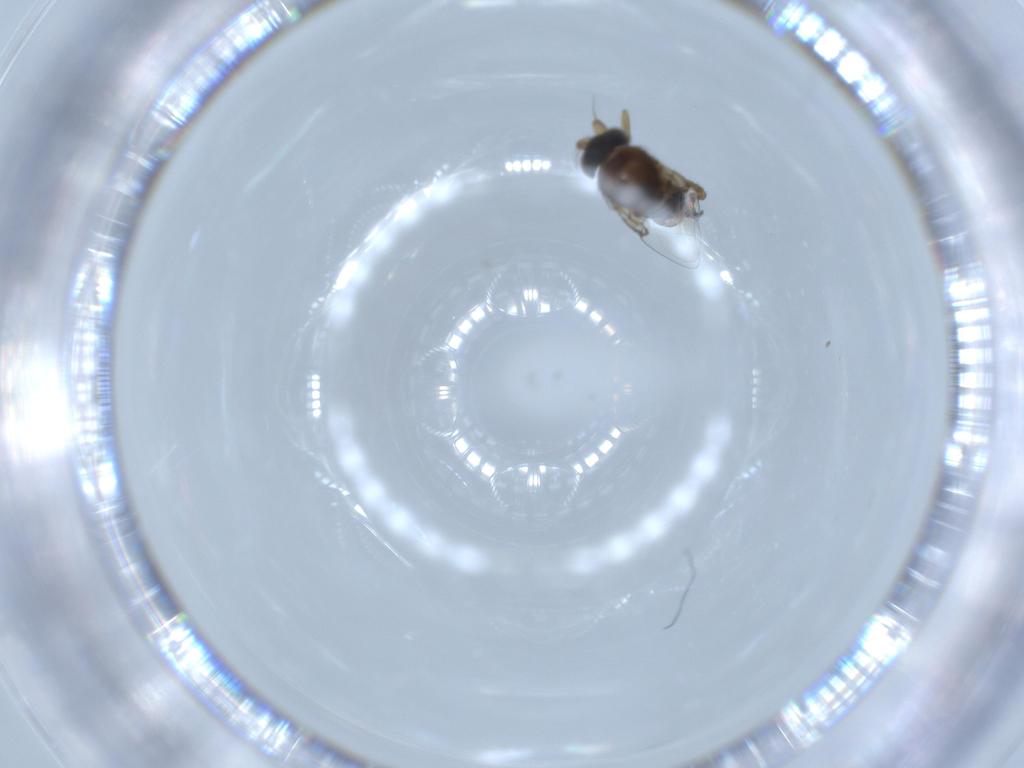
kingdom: Animalia
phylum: Arthropoda
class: Insecta
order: Diptera
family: Phoridae
